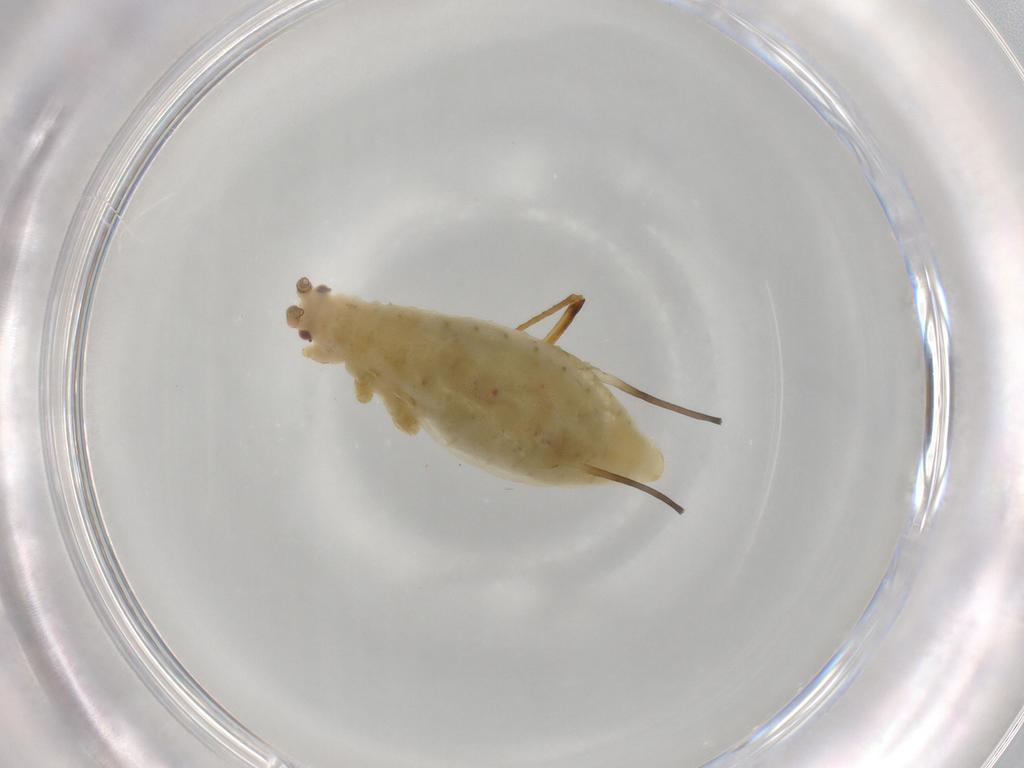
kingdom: Animalia
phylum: Arthropoda
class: Insecta
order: Hemiptera
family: Aphididae
